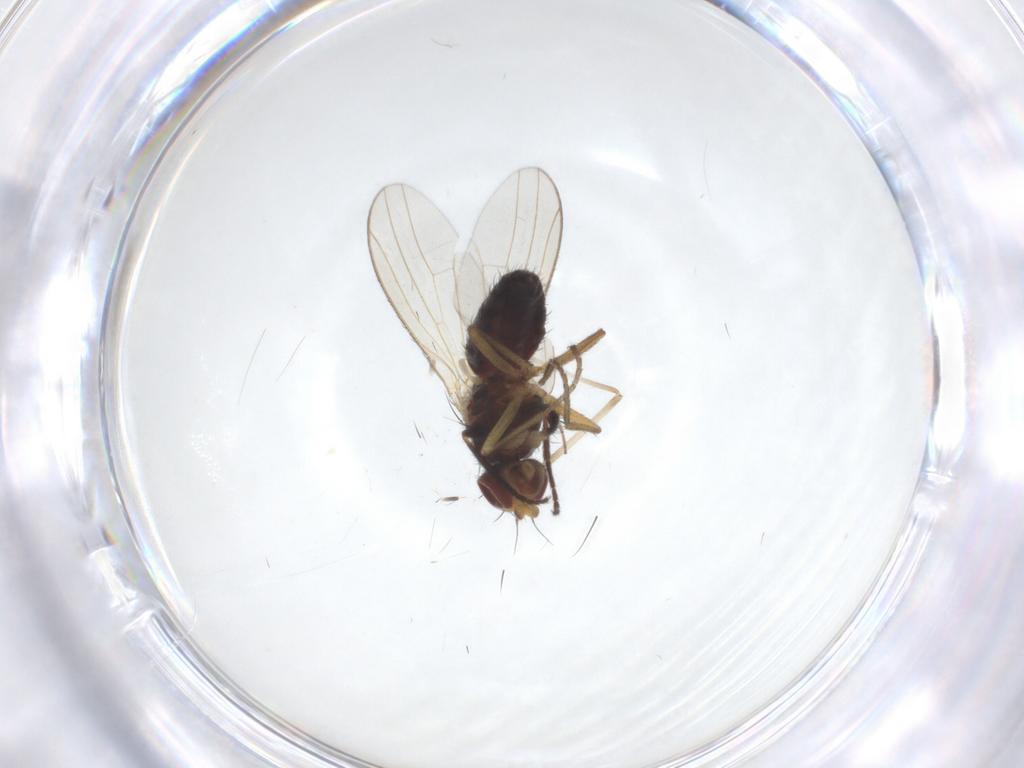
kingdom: Animalia
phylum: Arthropoda
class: Insecta
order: Diptera
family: Heleomyzidae
